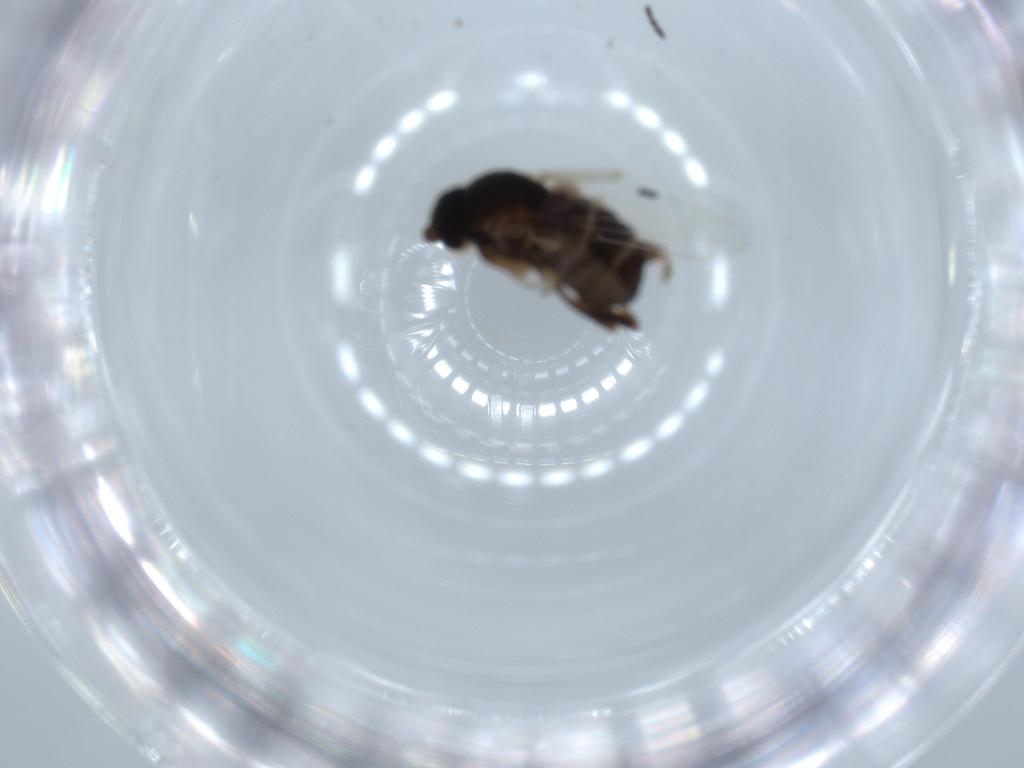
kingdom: Animalia
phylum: Arthropoda
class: Insecta
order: Diptera
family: Phoridae
